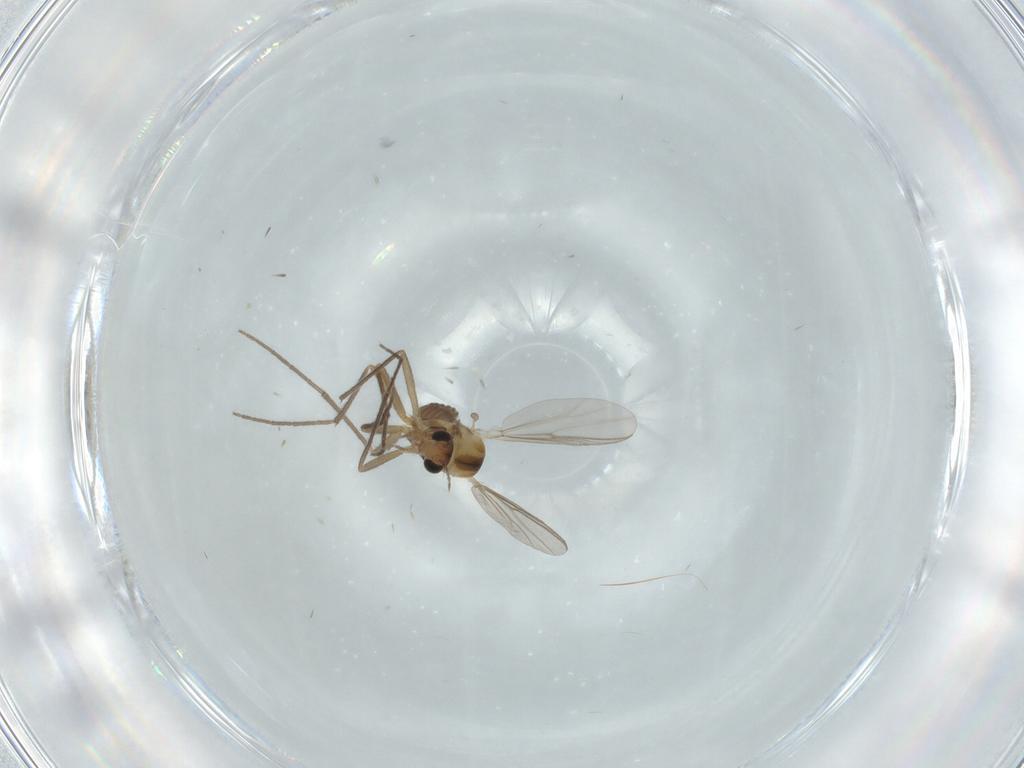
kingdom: Animalia
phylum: Arthropoda
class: Insecta
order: Diptera
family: Chironomidae
